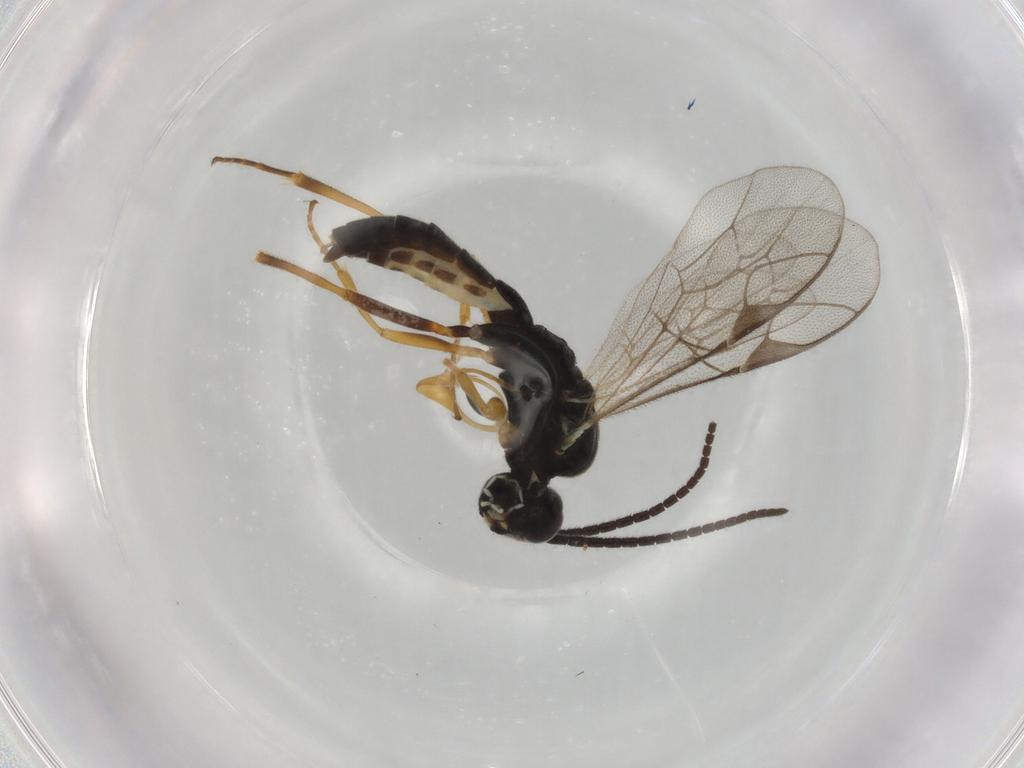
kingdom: Animalia
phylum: Arthropoda
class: Insecta
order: Hymenoptera
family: Ichneumonidae
